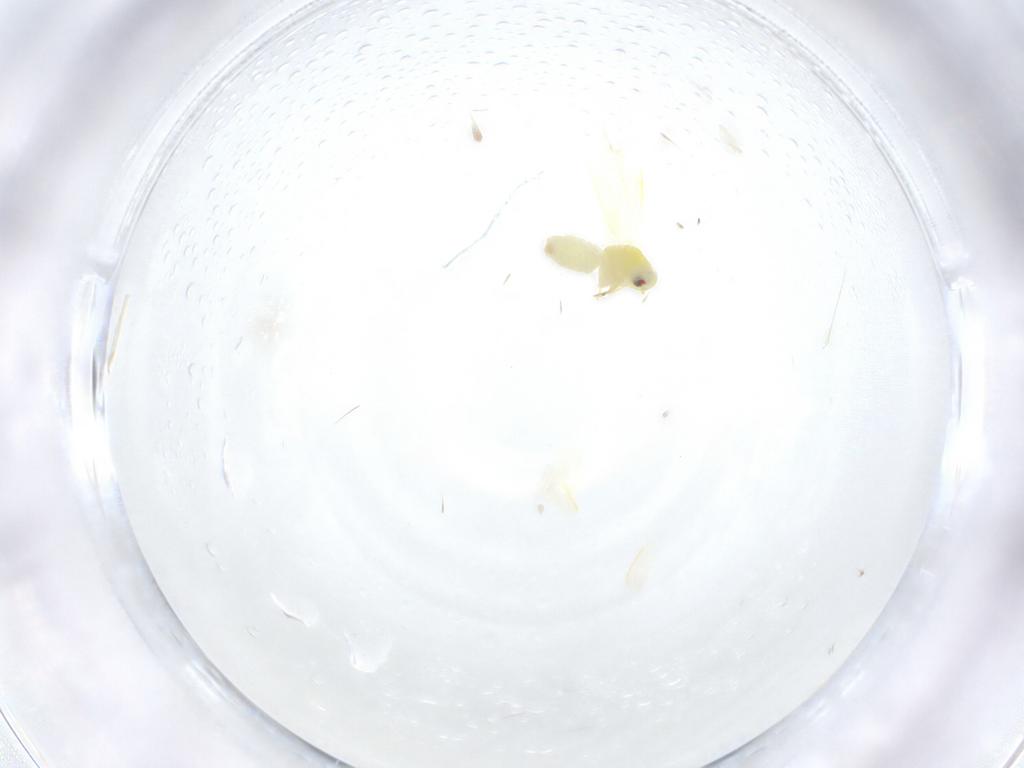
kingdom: Animalia
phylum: Arthropoda
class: Insecta
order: Hemiptera
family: Aleyrodidae
